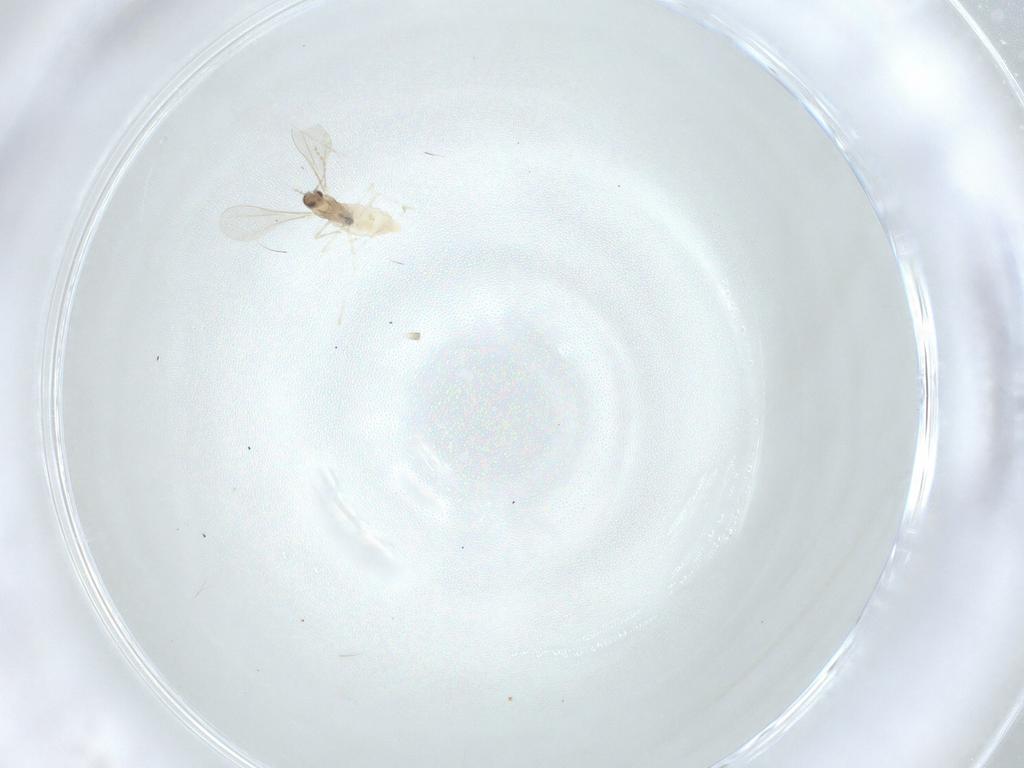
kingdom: Animalia
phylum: Arthropoda
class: Insecta
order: Diptera
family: Cecidomyiidae
